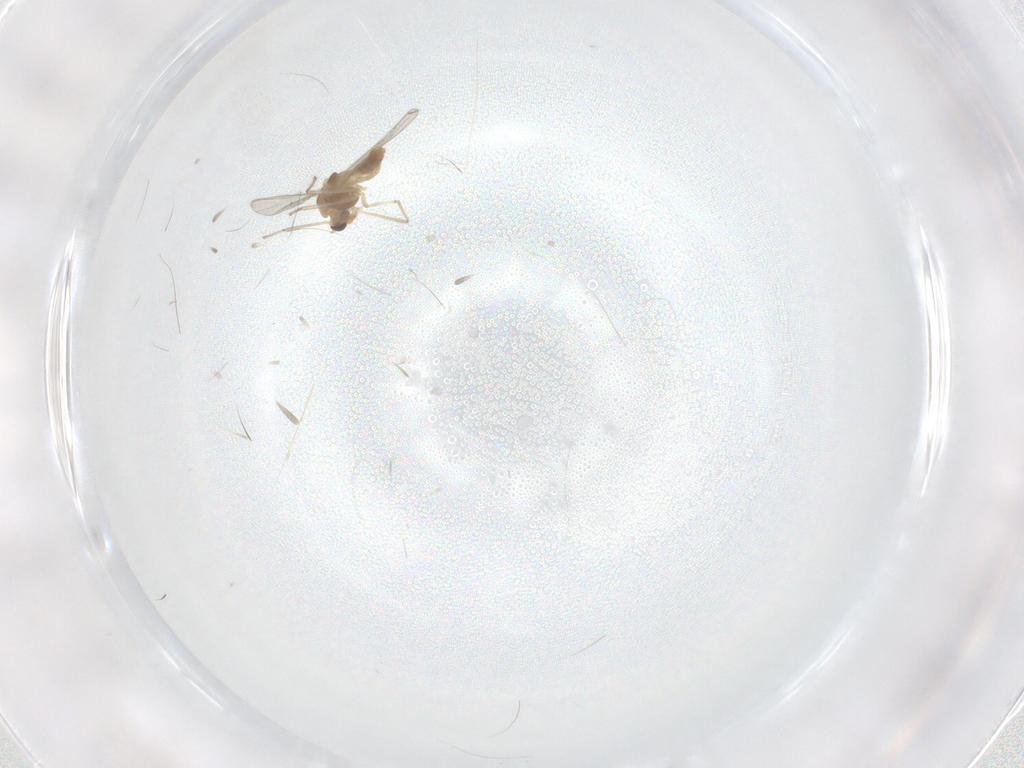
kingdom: Animalia
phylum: Arthropoda
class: Insecta
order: Diptera
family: Chironomidae
